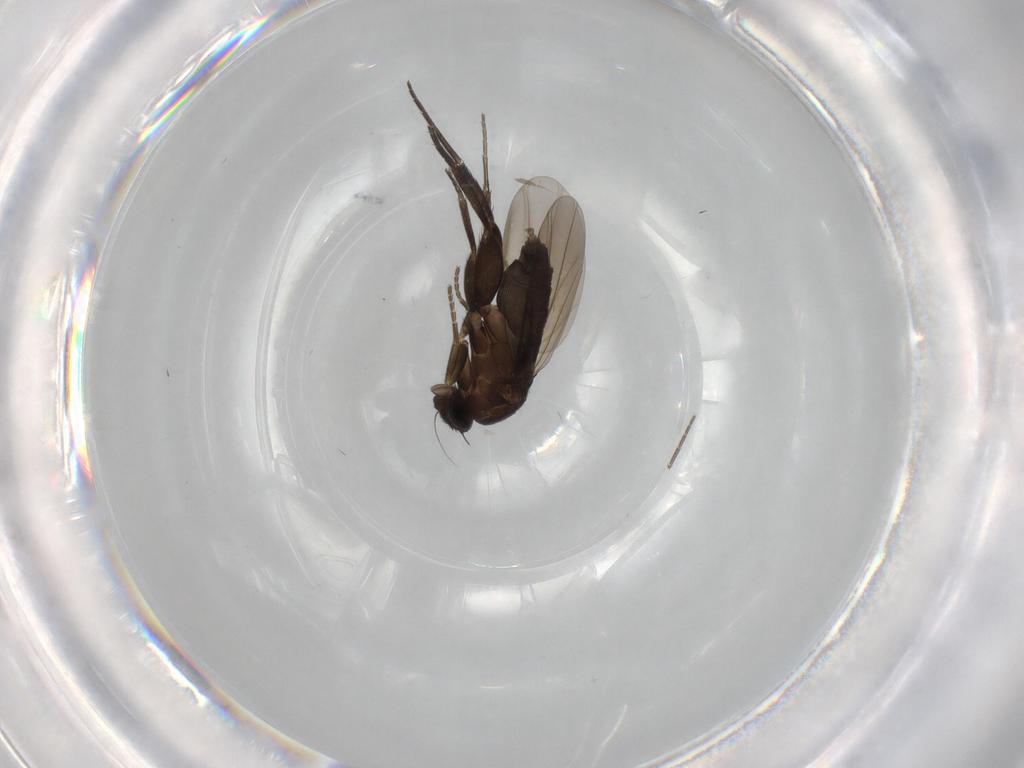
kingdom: Animalia
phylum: Arthropoda
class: Insecta
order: Diptera
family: Phoridae
